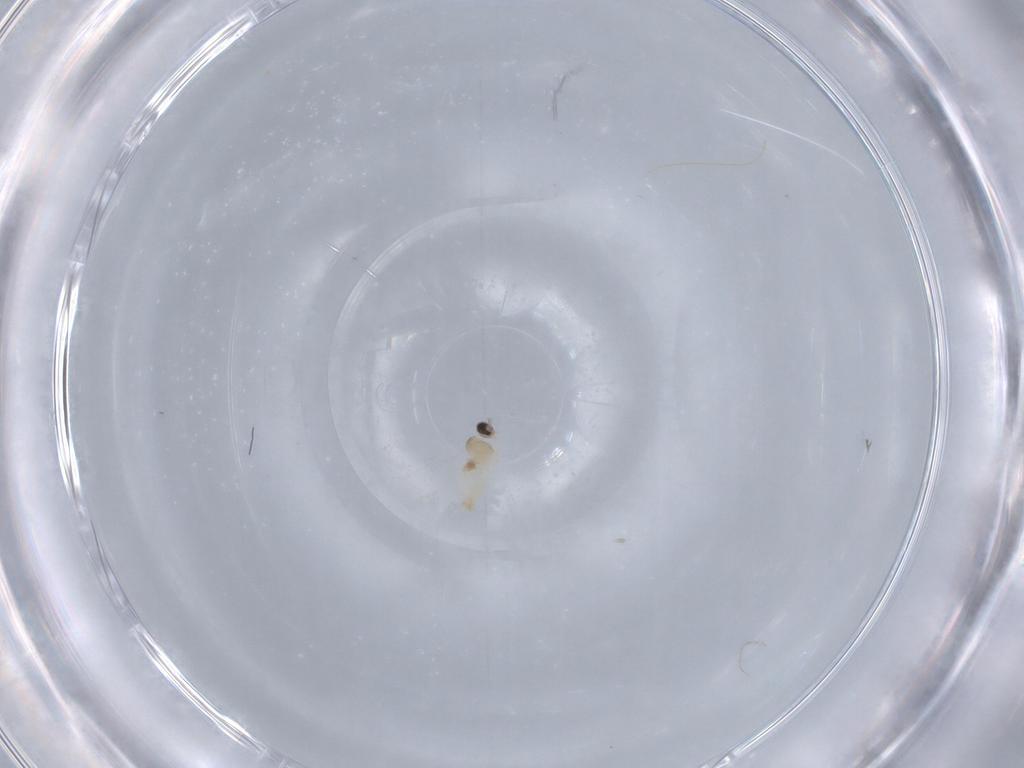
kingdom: Animalia
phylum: Arthropoda
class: Insecta
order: Diptera
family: Cecidomyiidae
